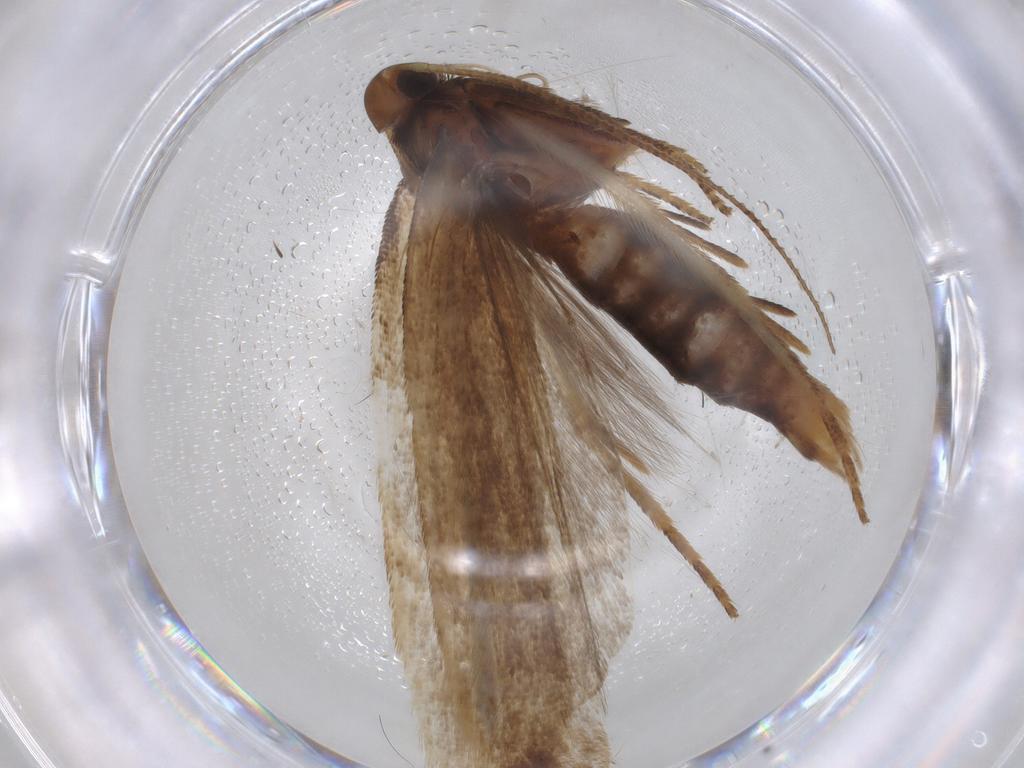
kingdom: Animalia
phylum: Arthropoda
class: Insecta
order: Lepidoptera
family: Gelechiidae
